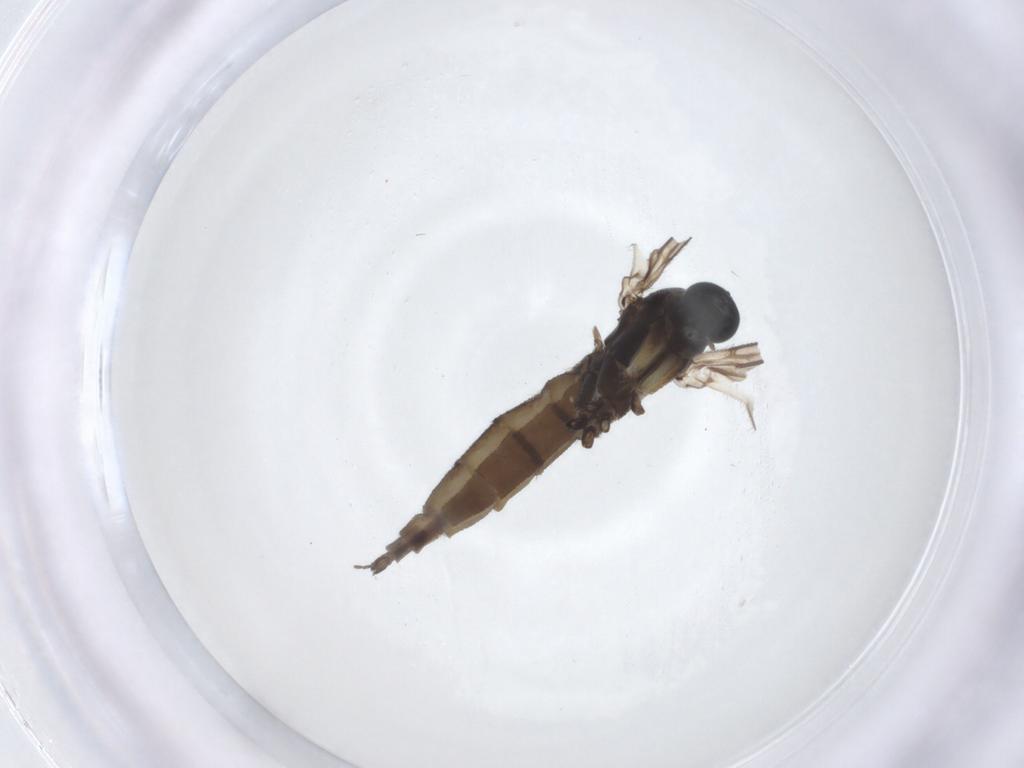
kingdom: Animalia
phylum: Arthropoda
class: Insecta
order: Diptera
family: Sciaridae
